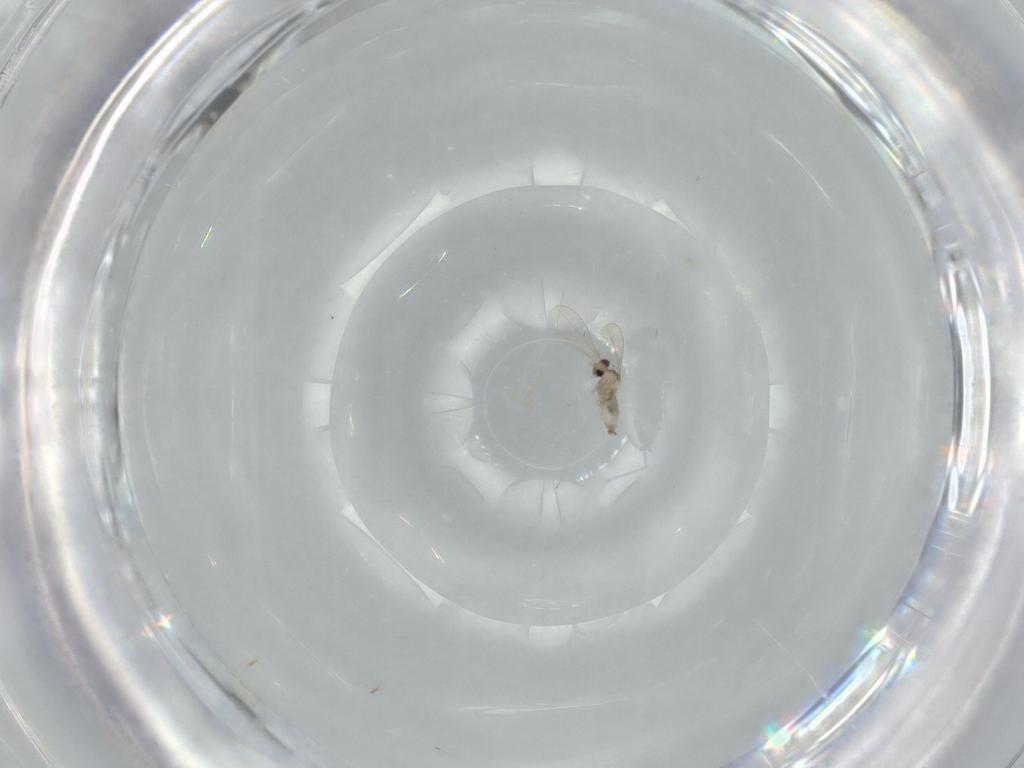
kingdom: Animalia
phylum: Arthropoda
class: Insecta
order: Diptera
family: Cecidomyiidae
